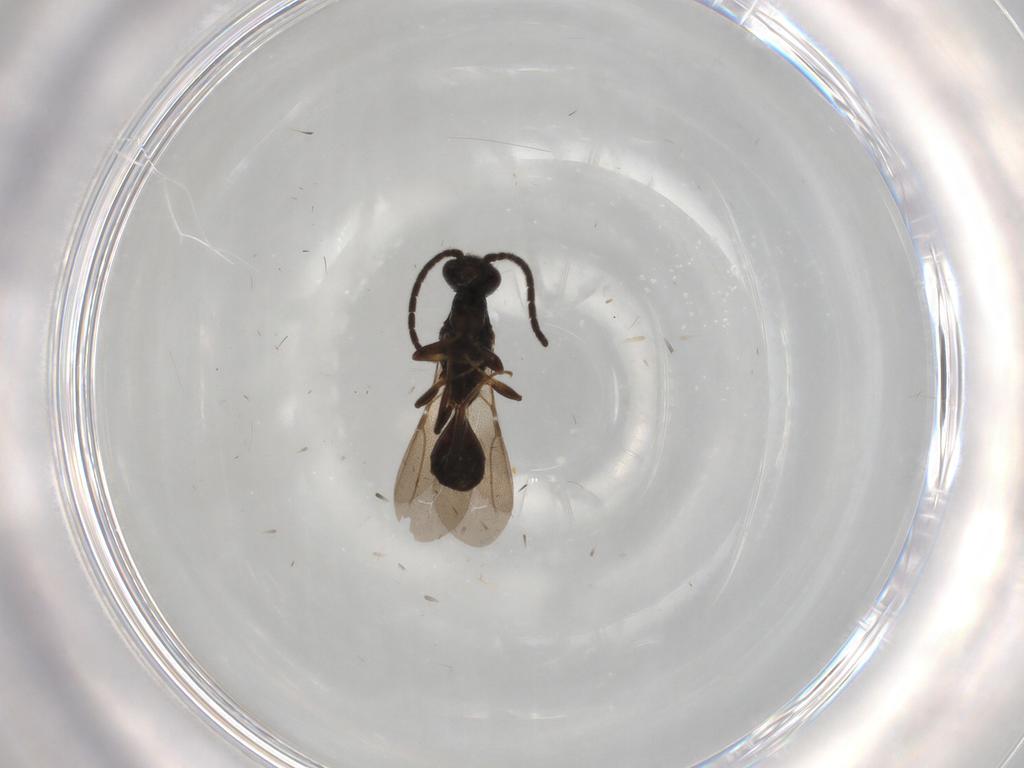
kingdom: Animalia
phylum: Arthropoda
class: Insecta
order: Hymenoptera
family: Bethylidae
